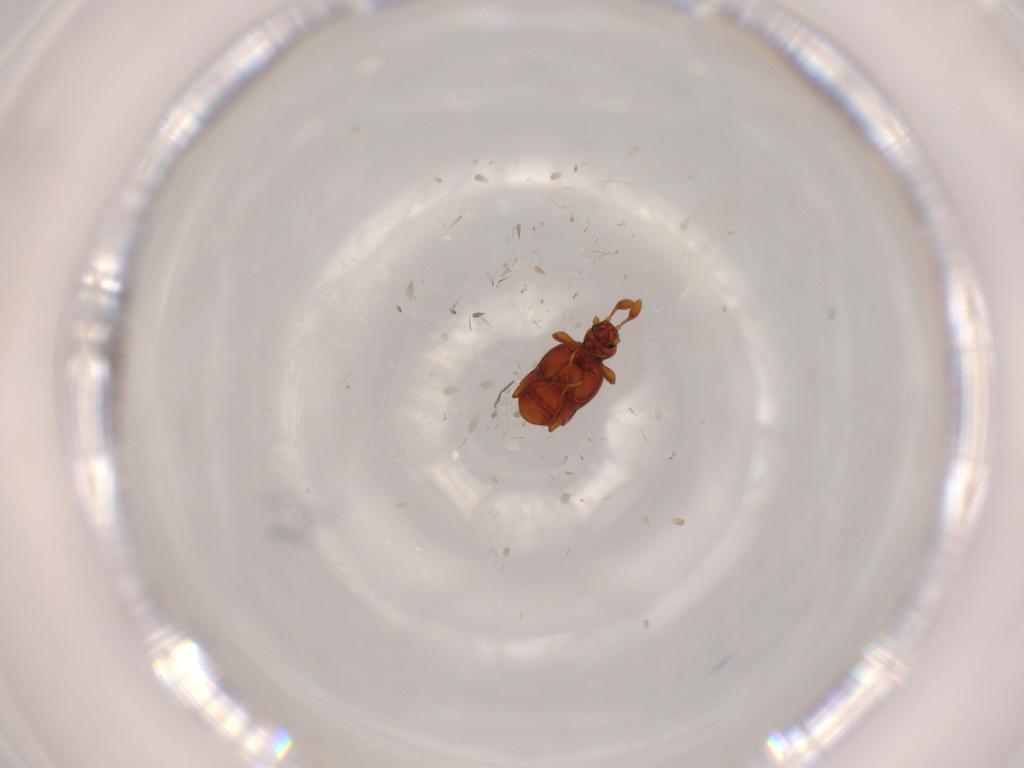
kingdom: Animalia
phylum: Arthropoda
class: Insecta
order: Coleoptera
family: Staphylinidae
